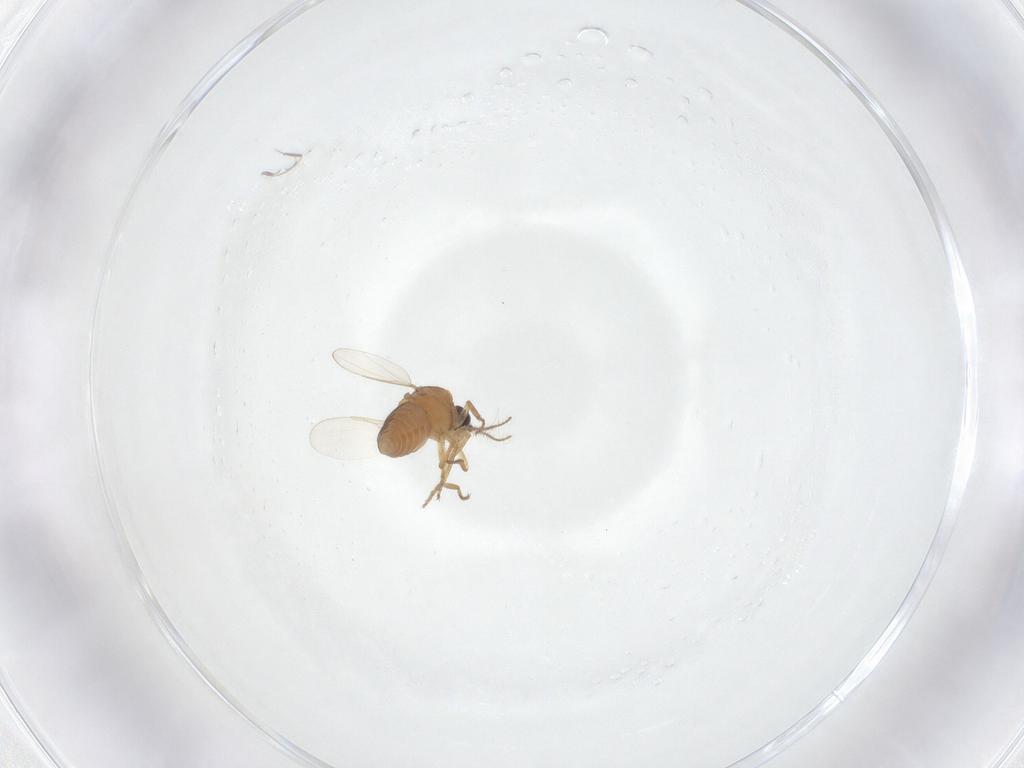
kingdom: Animalia
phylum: Arthropoda
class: Insecta
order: Diptera
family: Ceratopogonidae
